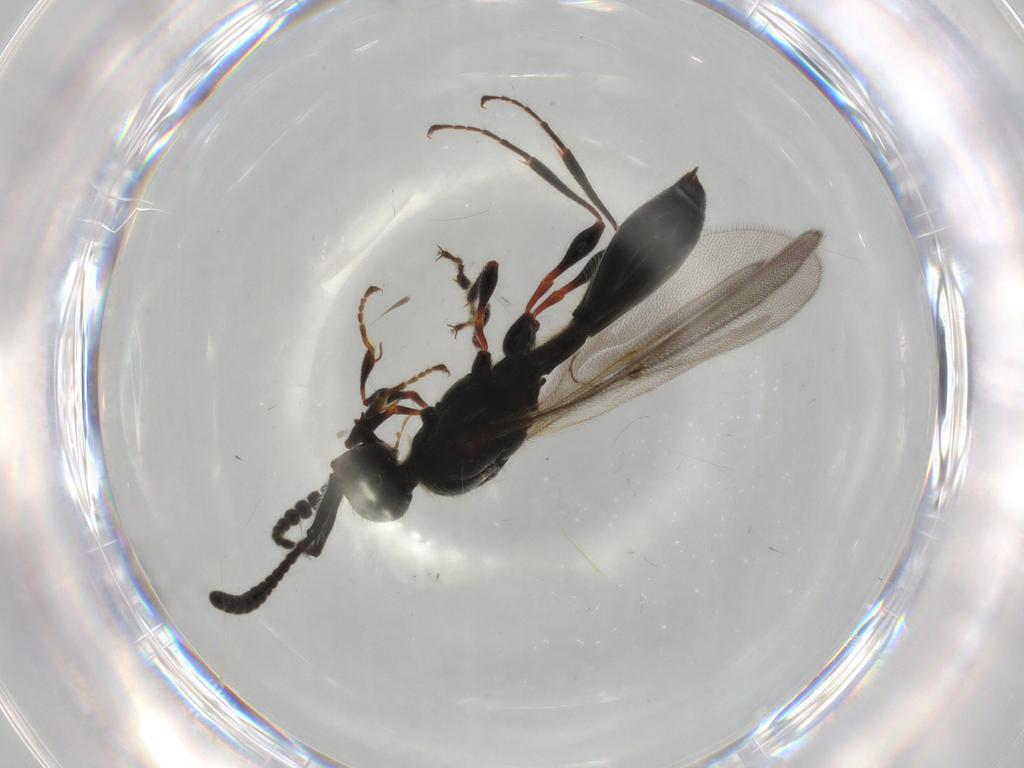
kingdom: Animalia
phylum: Arthropoda
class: Insecta
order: Hymenoptera
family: Diapriidae
